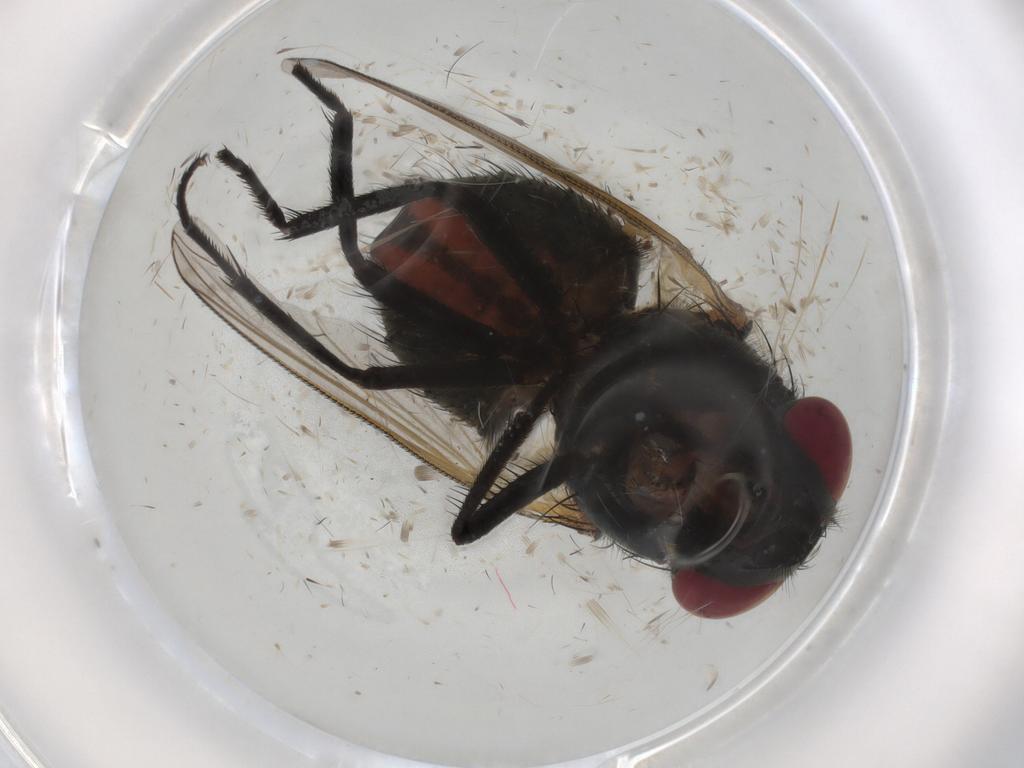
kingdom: Animalia
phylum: Arthropoda
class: Insecta
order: Diptera
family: Muscidae
